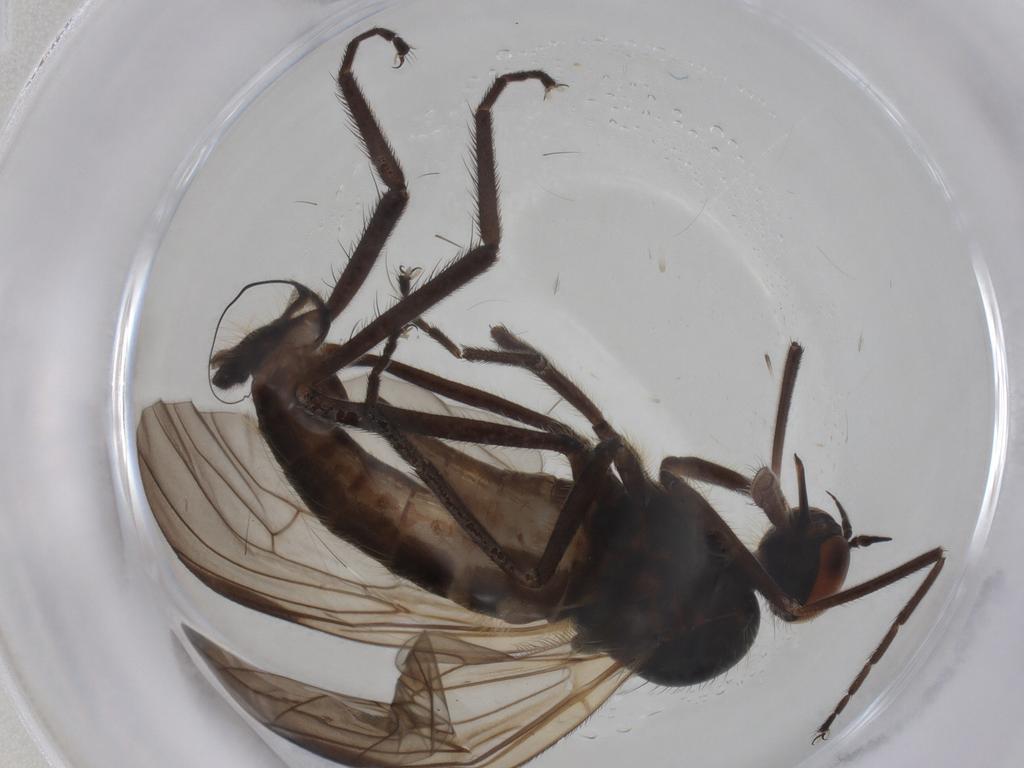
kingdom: Animalia
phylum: Arthropoda
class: Insecta
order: Diptera
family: Empididae
